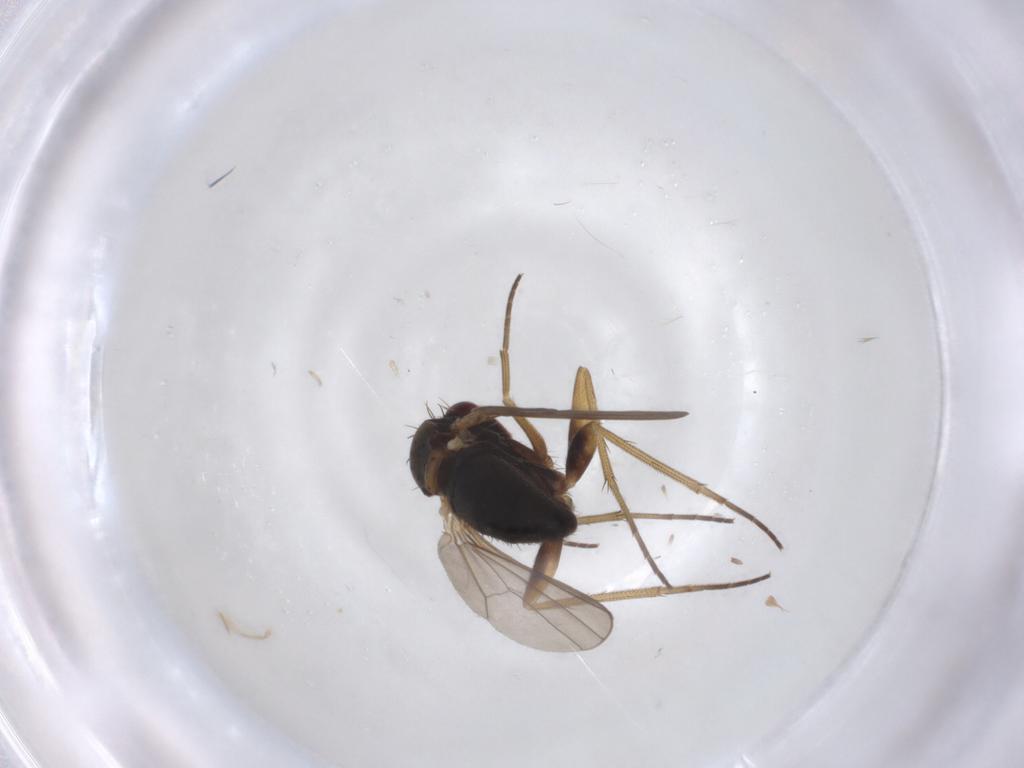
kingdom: Animalia
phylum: Arthropoda
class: Insecta
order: Diptera
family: Dolichopodidae
